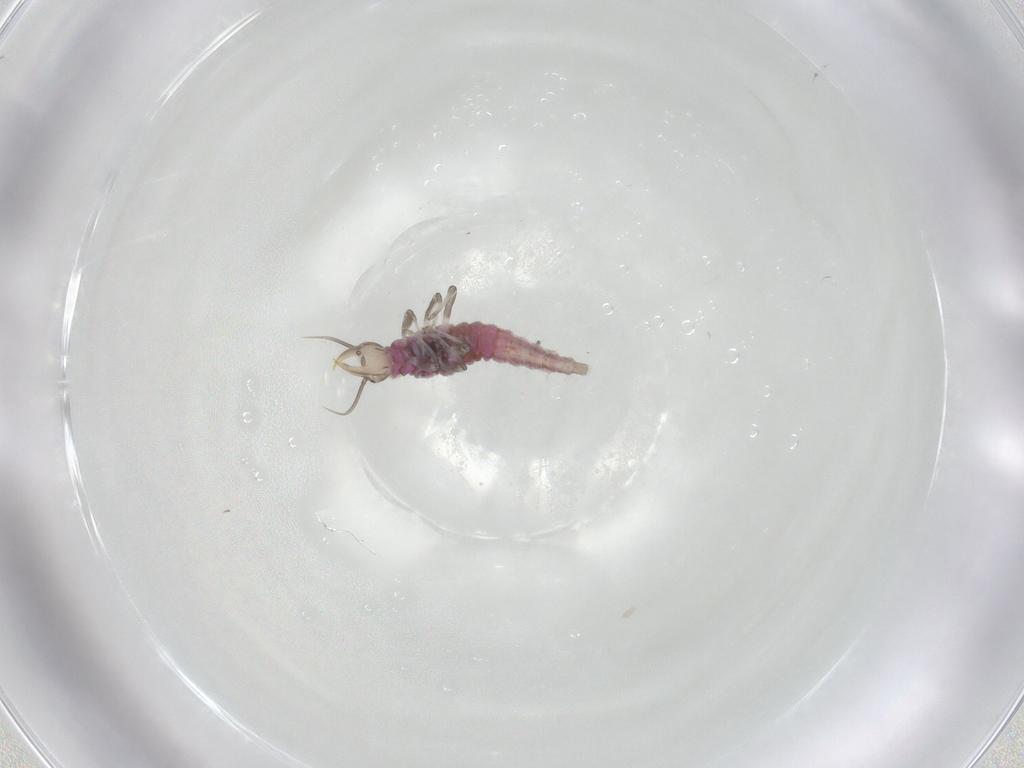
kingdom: Animalia
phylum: Arthropoda
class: Insecta
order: Neuroptera
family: Hemerobiidae
